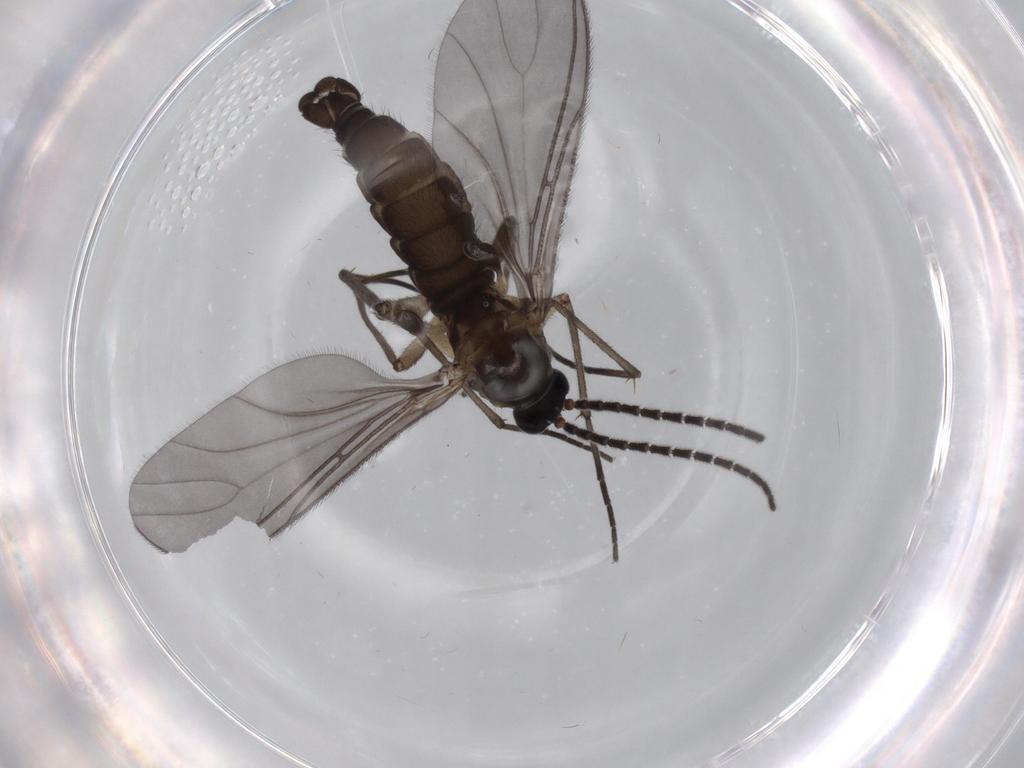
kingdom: Animalia
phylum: Arthropoda
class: Insecta
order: Diptera
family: Sciaridae
